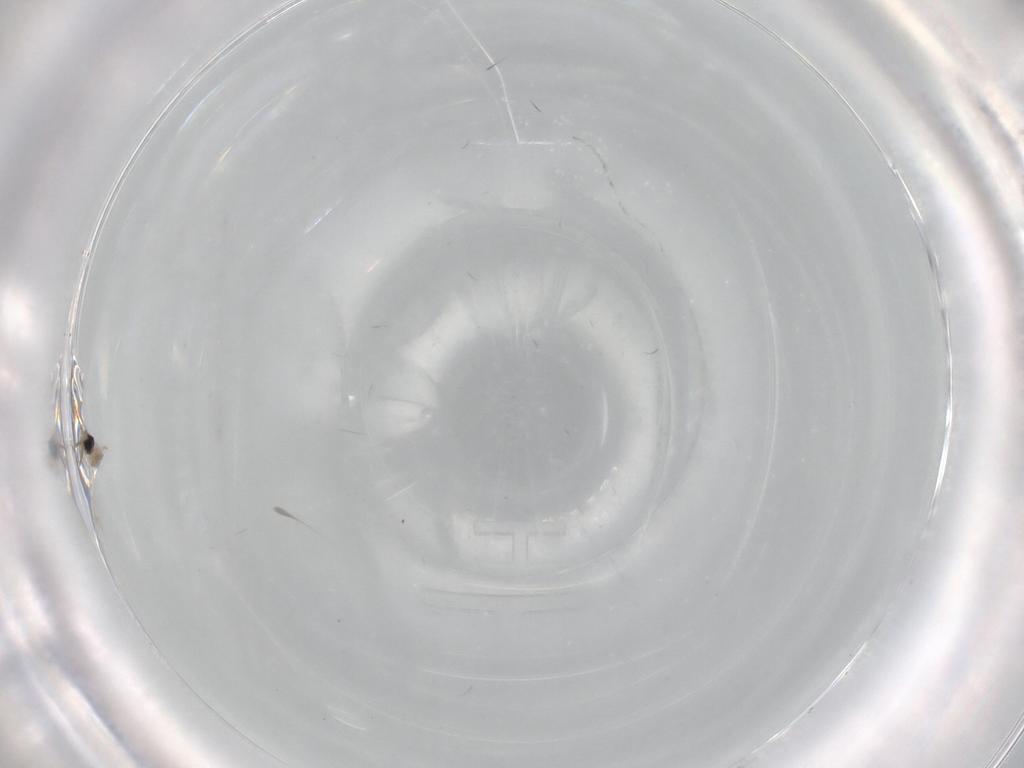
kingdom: Animalia
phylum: Arthropoda
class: Insecta
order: Diptera
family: Cecidomyiidae
